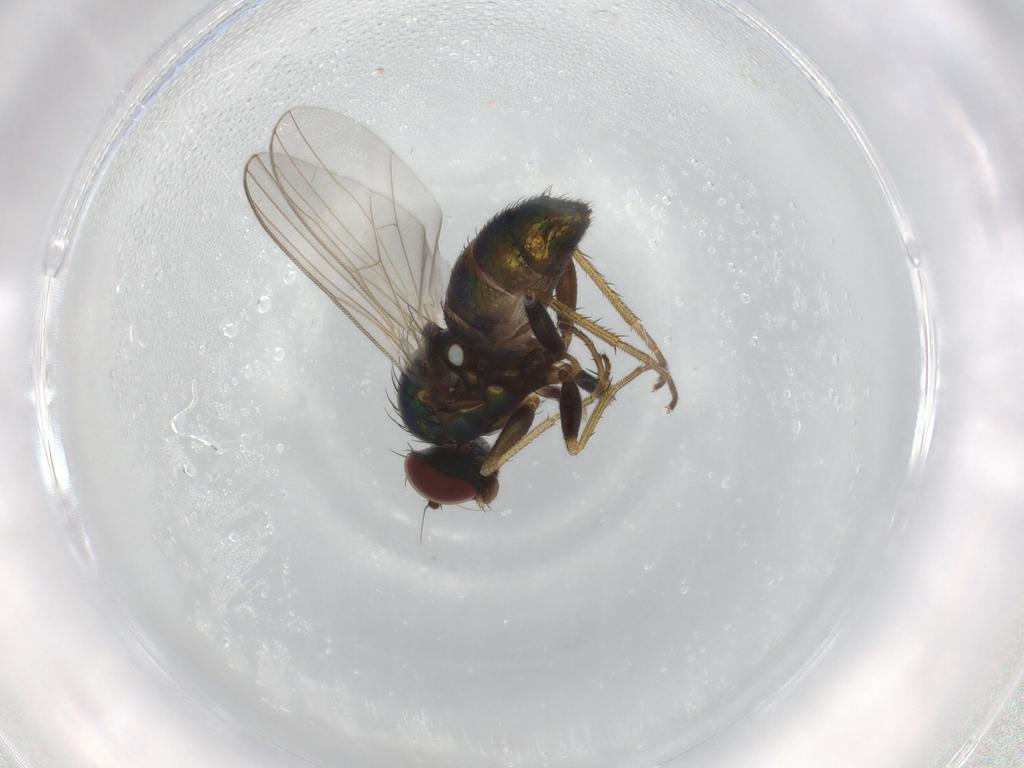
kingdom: Animalia
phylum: Arthropoda
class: Insecta
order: Diptera
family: Dolichopodidae
